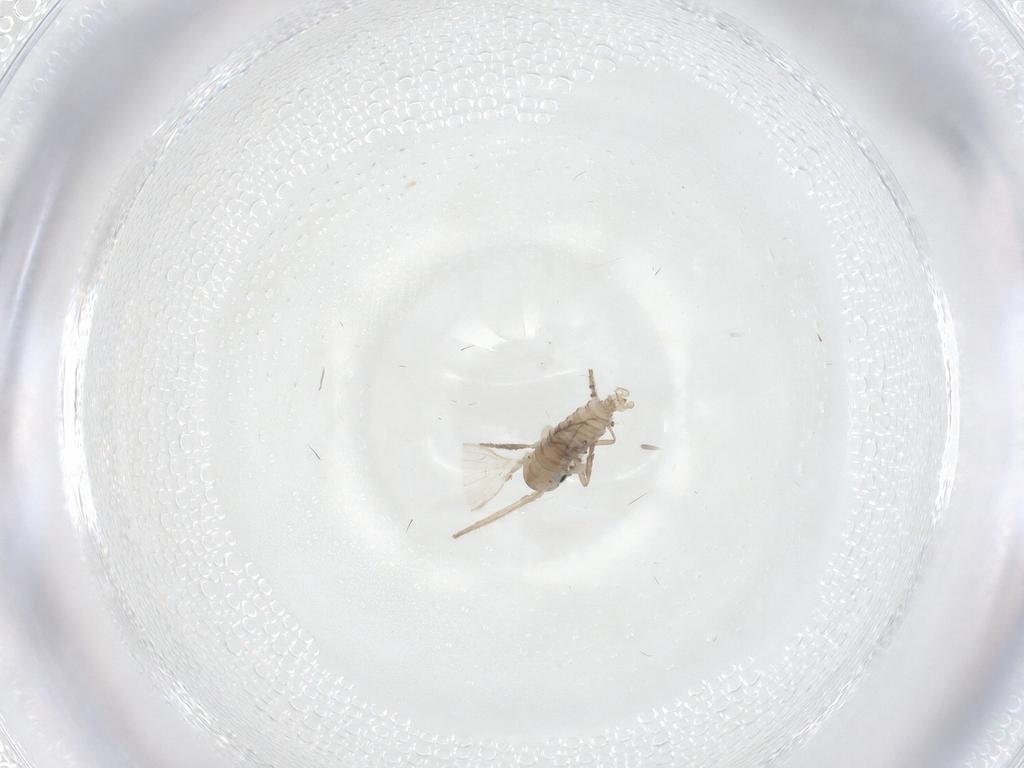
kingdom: Animalia
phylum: Arthropoda
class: Insecta
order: Diptera
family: Psychodidae
